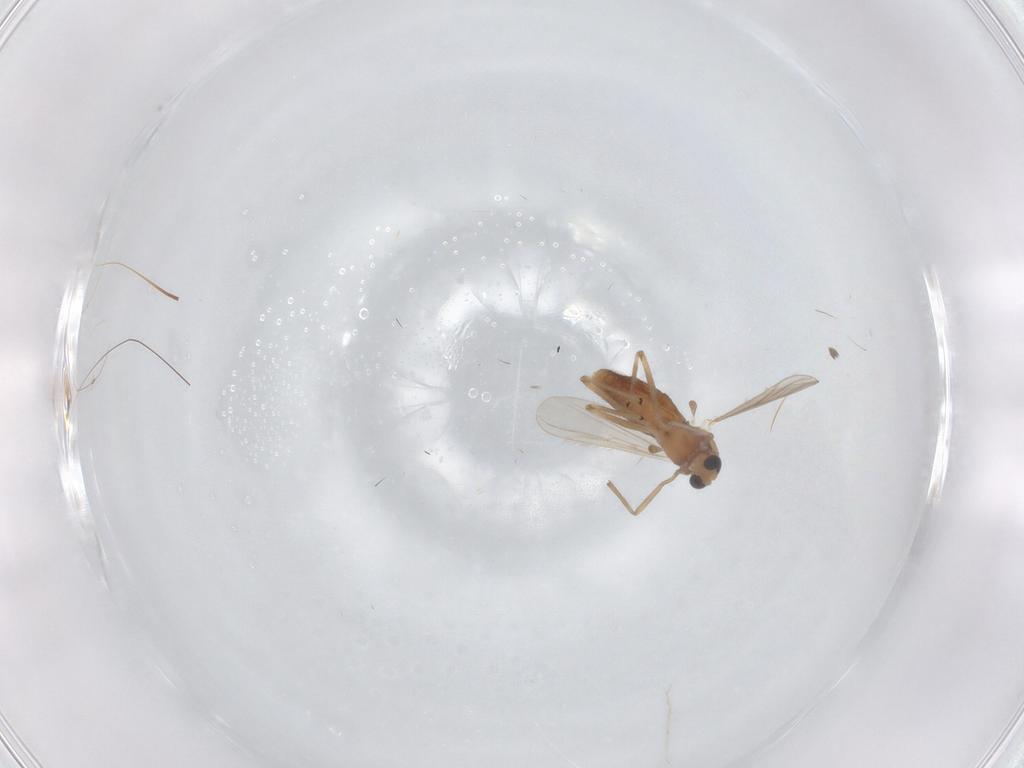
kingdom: Animalia
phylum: Arthropoda
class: Insecta
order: Diptera
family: Chironomidae
